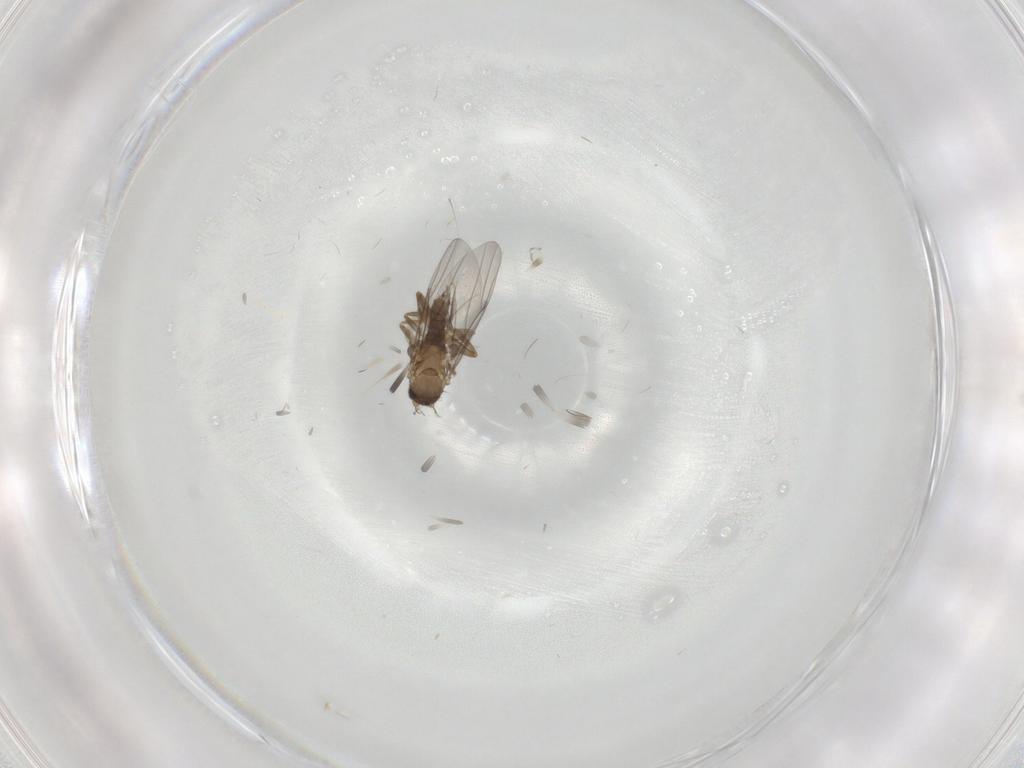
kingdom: Animalia
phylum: Arthropoda
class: Insecta
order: Diptera
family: Cecidomyiidae
